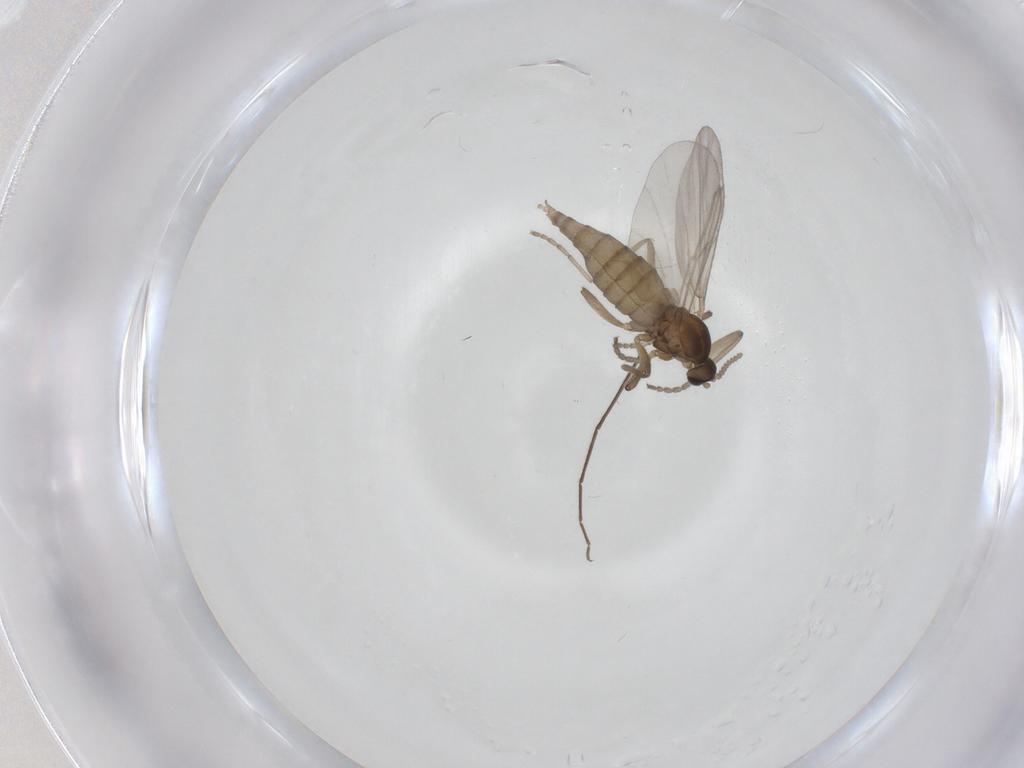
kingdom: Animalia
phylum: Arthropoda
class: Insecta
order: Diptera
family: Cecidomyiidae
